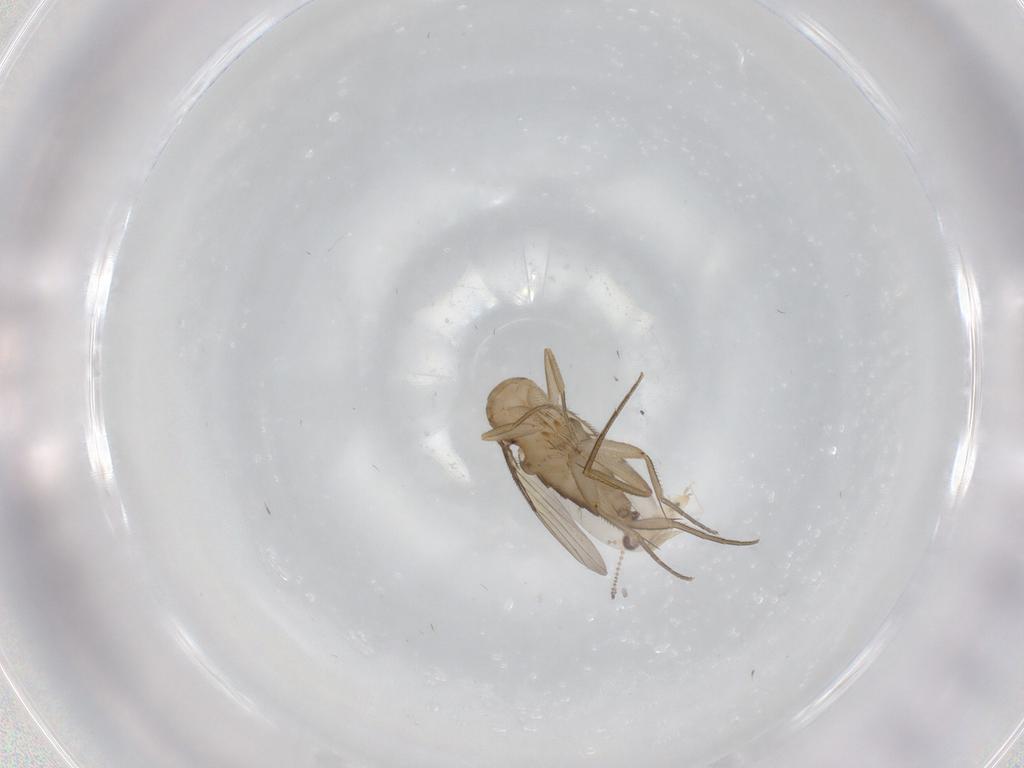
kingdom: Animalia
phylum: Arthropoda
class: Insecta
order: Diptera
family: Phoridae
